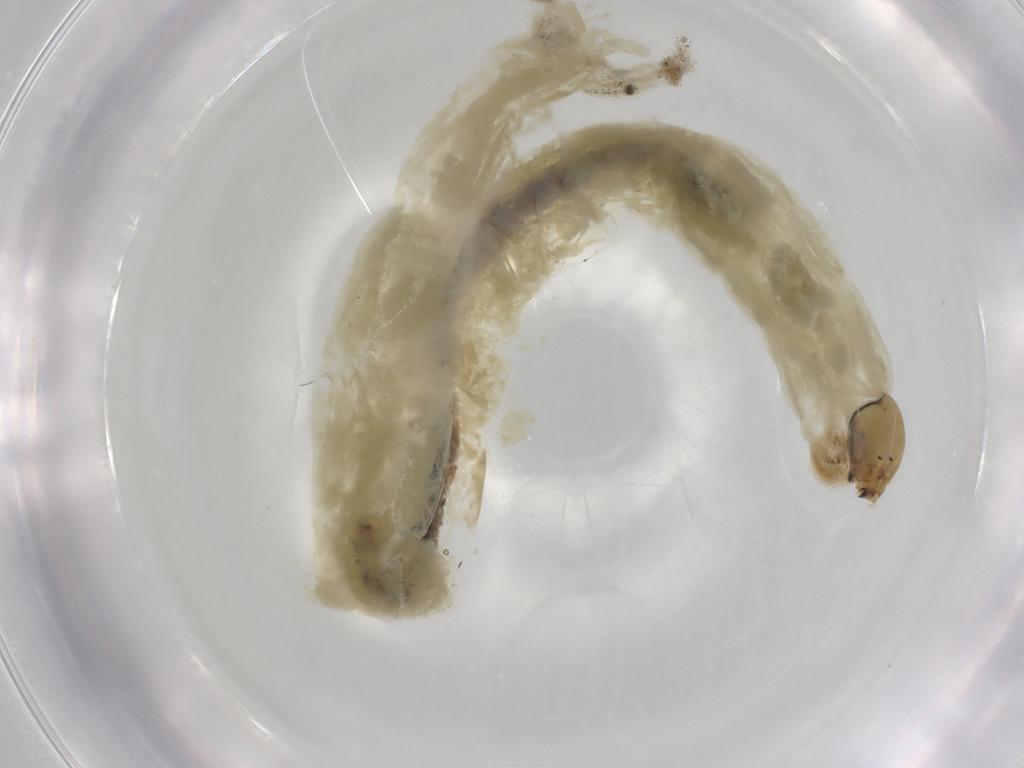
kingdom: Animalia
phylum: Arthropoda
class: Insecta
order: Diptera
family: Chironomidae
